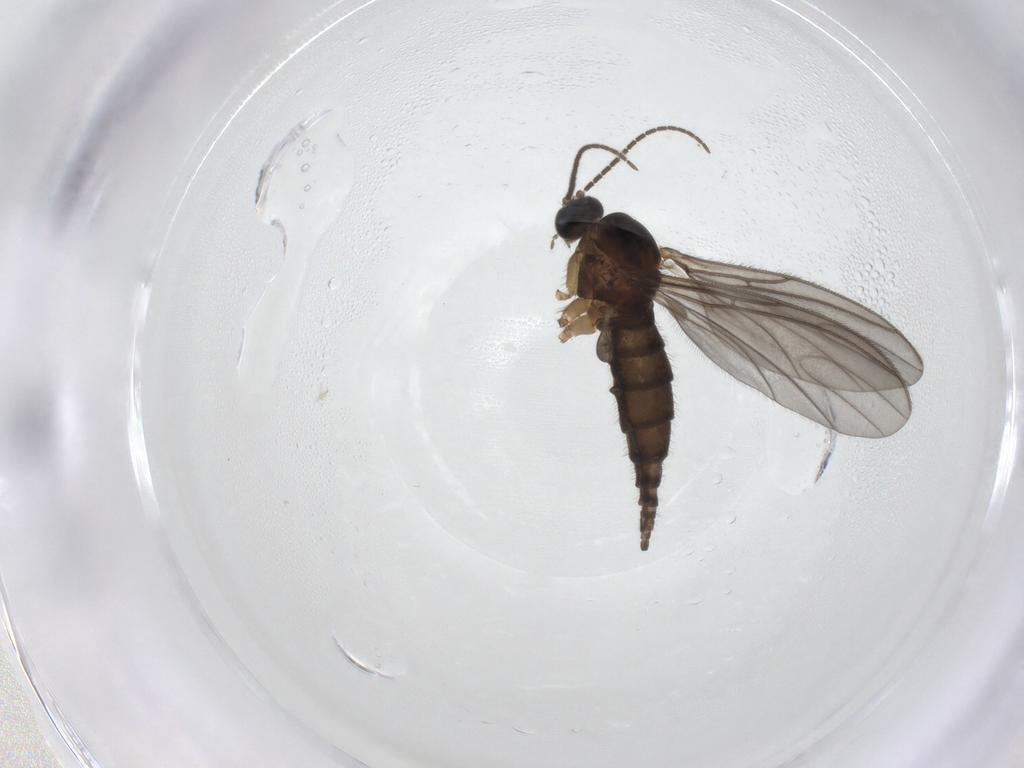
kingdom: Animalia
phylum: Arthropoda
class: Insecta
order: Diptera
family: Sciaridae
